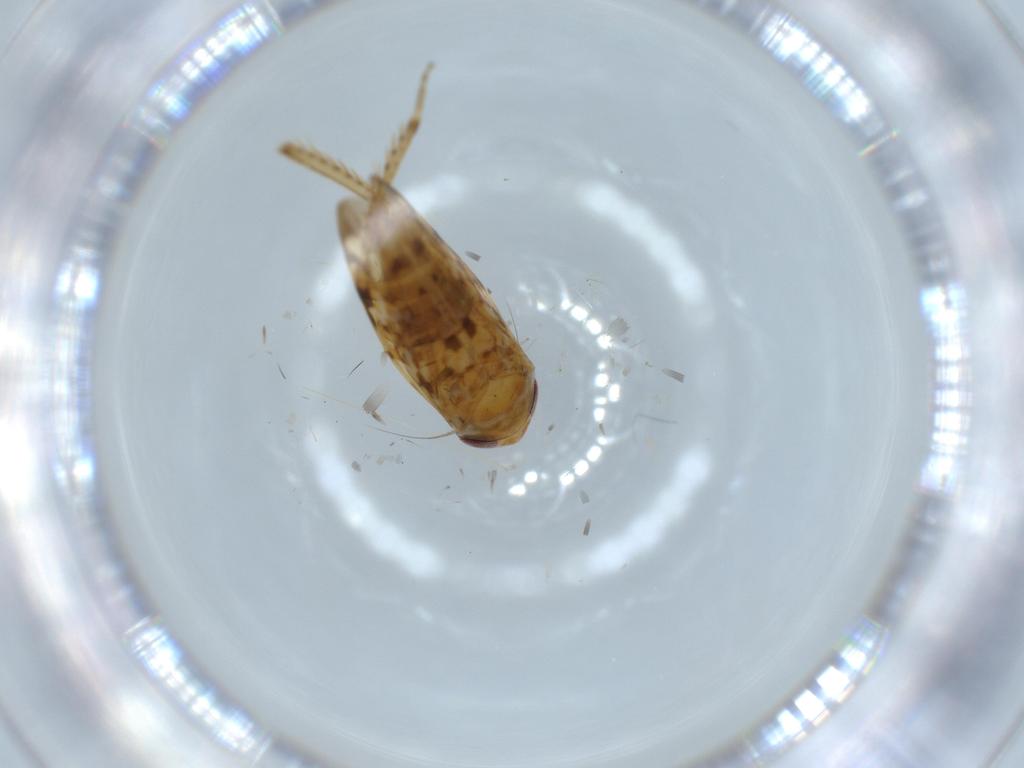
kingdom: Animalia
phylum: Arthropoda
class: Insecta
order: Hemiptera
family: Cicadellidae
